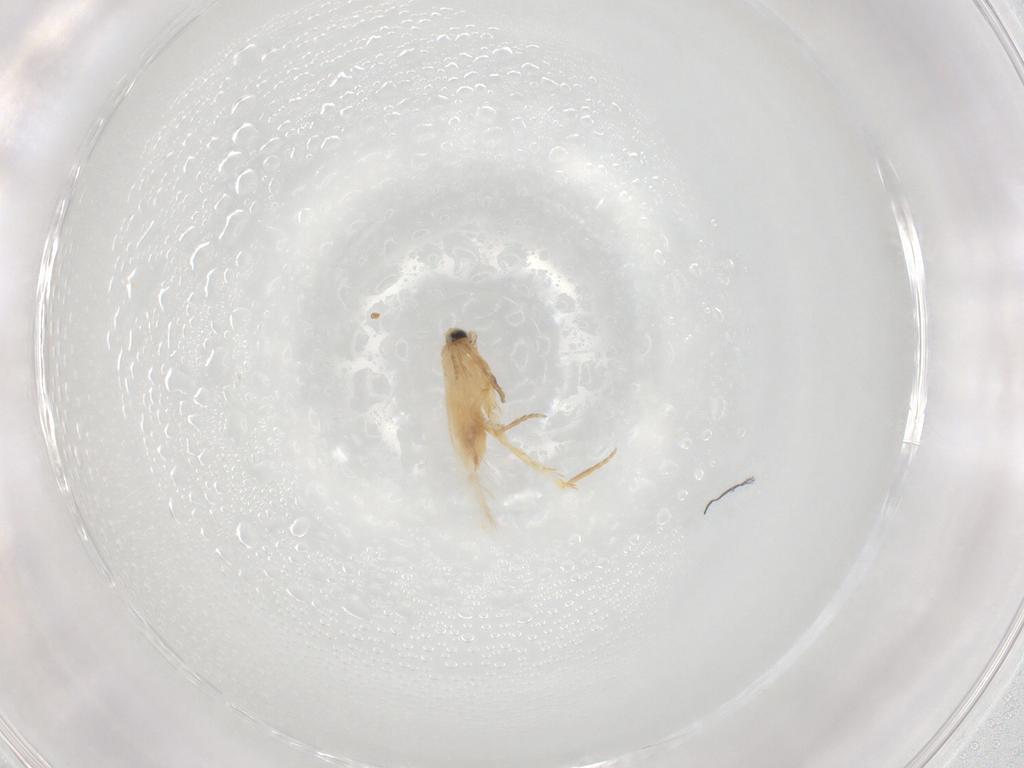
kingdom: Animalia
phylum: Arthropoda
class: Insecta
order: Lepidoptera
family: Nepticulidae
